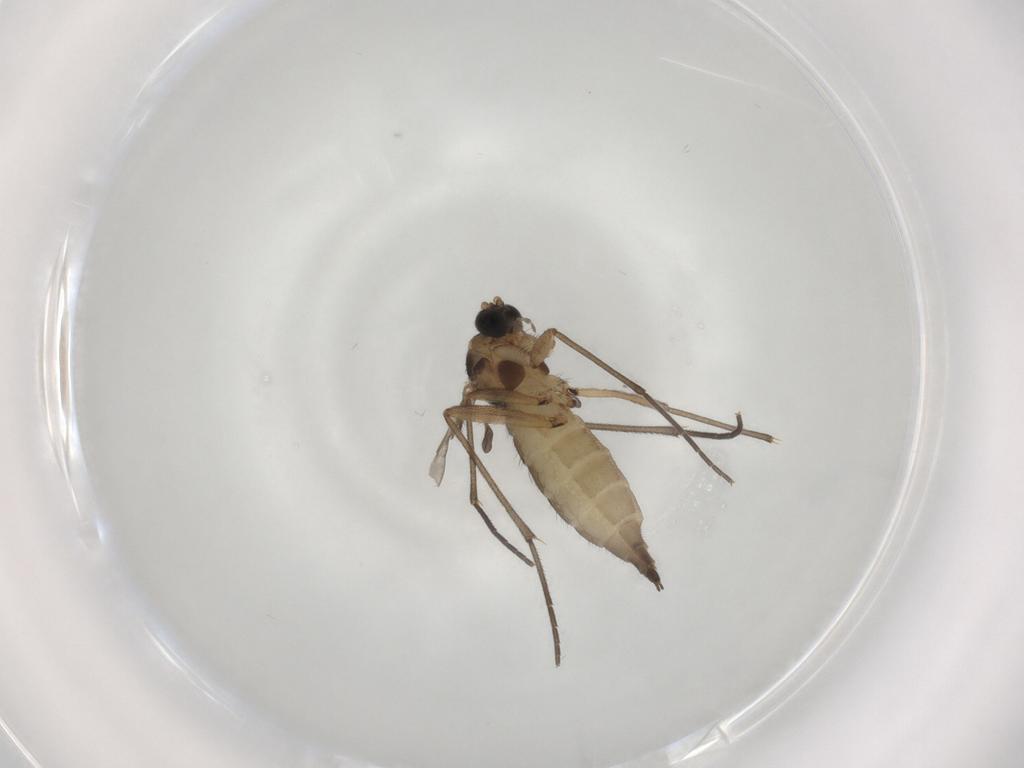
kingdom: Animalia
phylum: Arthropoda
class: Insecta
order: Diptera
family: Sciaridae
